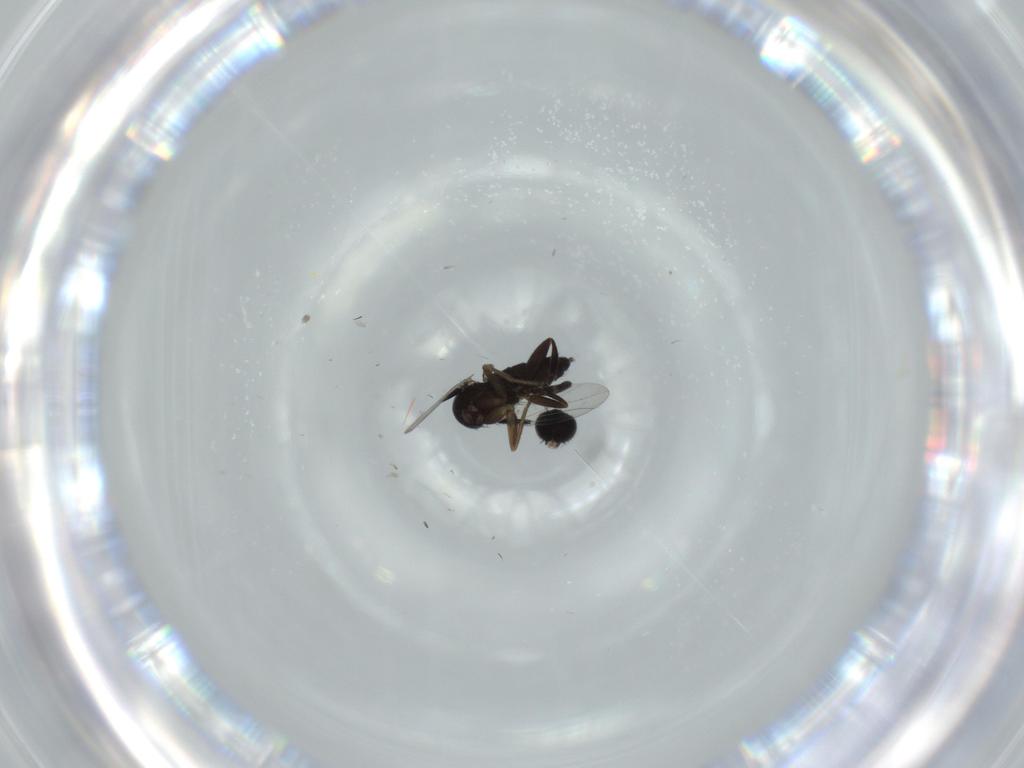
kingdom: Animalia
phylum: Arthropoda
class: Insecta
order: Diptera
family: Phoridae
